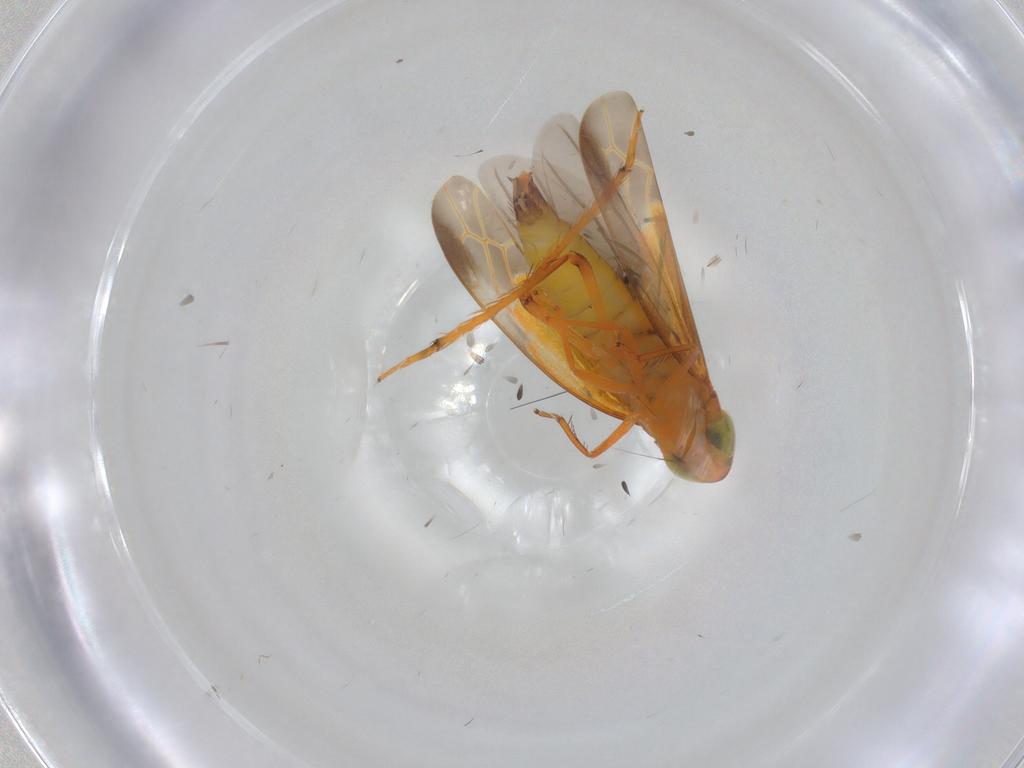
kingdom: Animalia
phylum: Arthropoda
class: Insecta
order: Hemiptera
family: Cicadellidae
